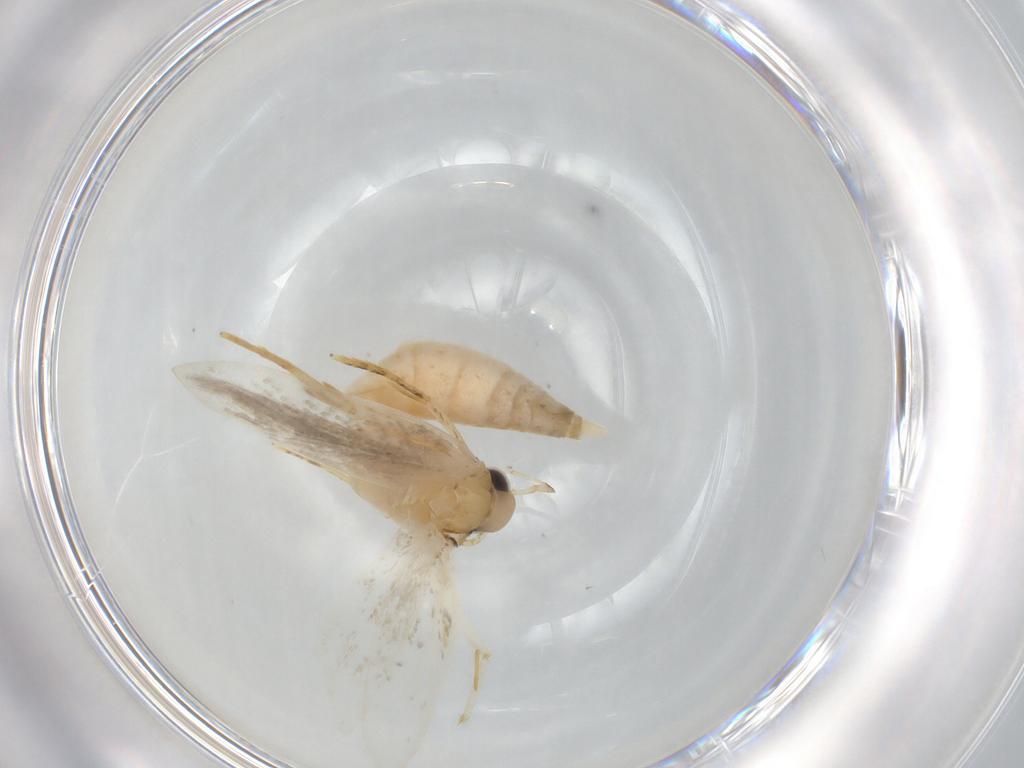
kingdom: Animalia
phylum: Arthropoda
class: Insecta
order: Lepidoptera
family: Autostichidae
